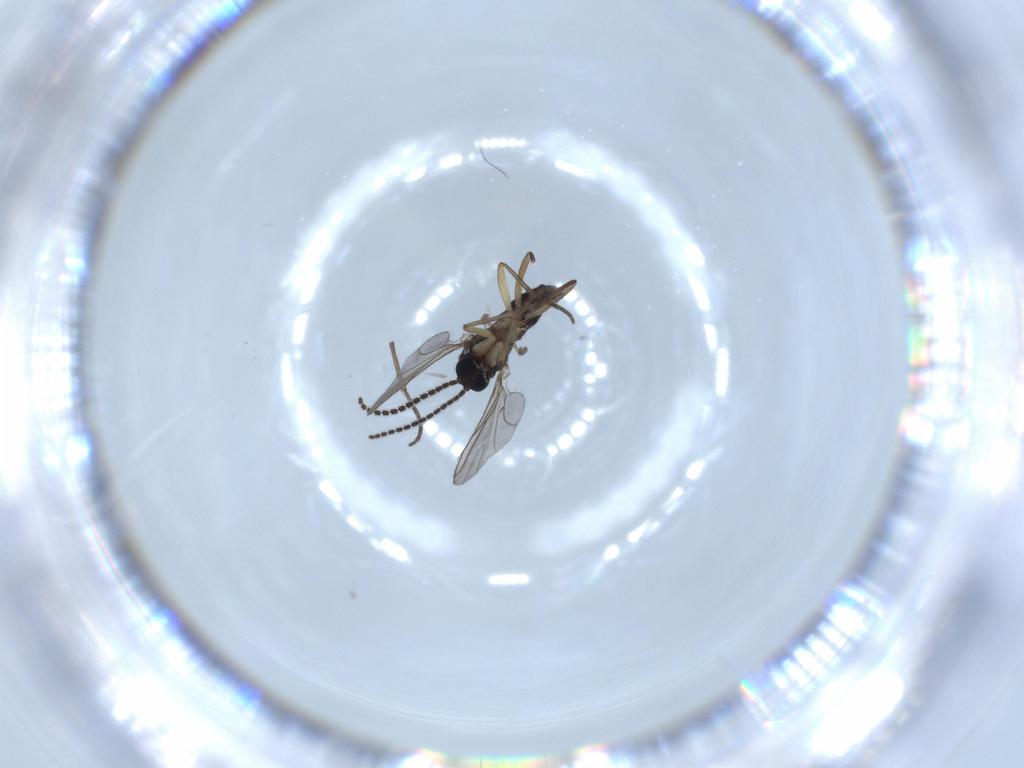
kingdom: Animalia
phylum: Arthropoda
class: Insecta
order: Diptera
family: Sciaridae
